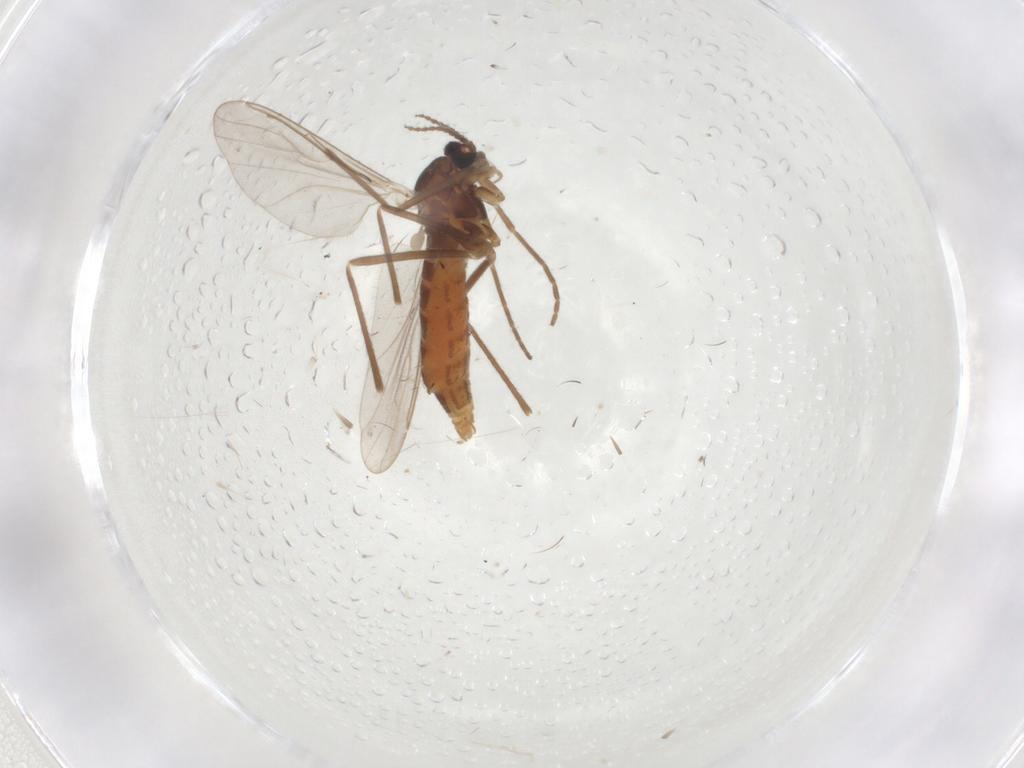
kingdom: Animalia
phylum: Arthropoda
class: Insecta
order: Diptera
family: Cecidomyiidae
